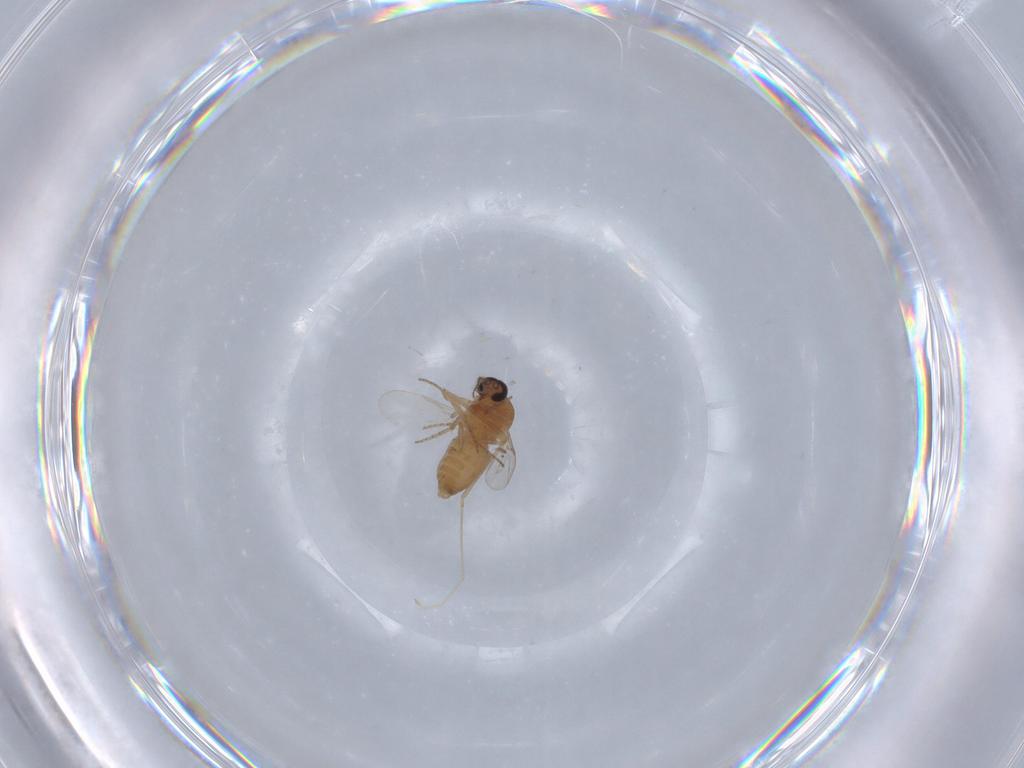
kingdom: Animalia
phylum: Arthropoda
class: Insecta
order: Diptera
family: Ceratopogonidae
